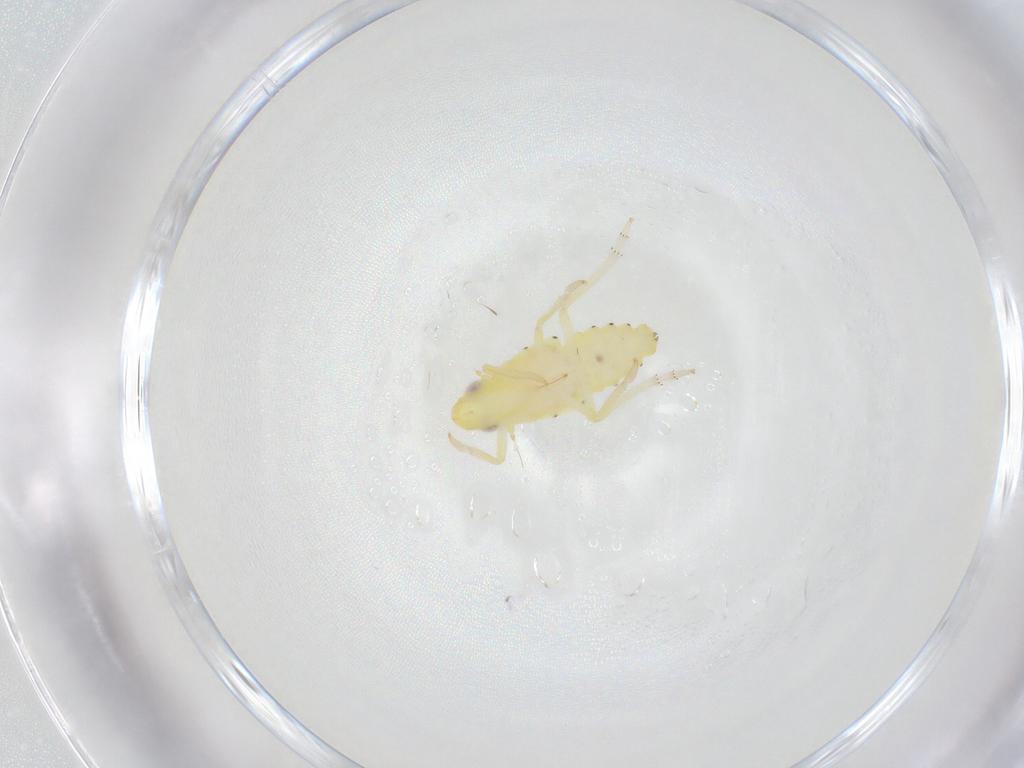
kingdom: Animalia
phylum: Arthropoda
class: Insecta
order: Hemiptera
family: Tropiduchidae
